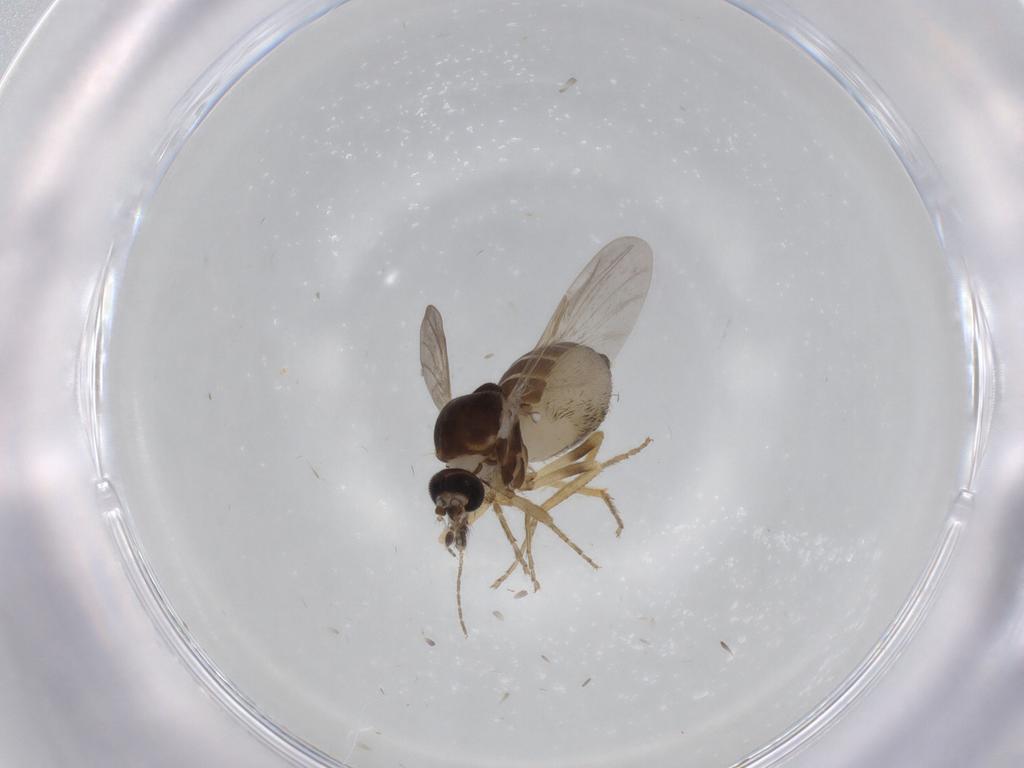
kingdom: Animalia
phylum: Arthropoda
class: Insecta
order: Diptera
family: Ceratopogonidae
